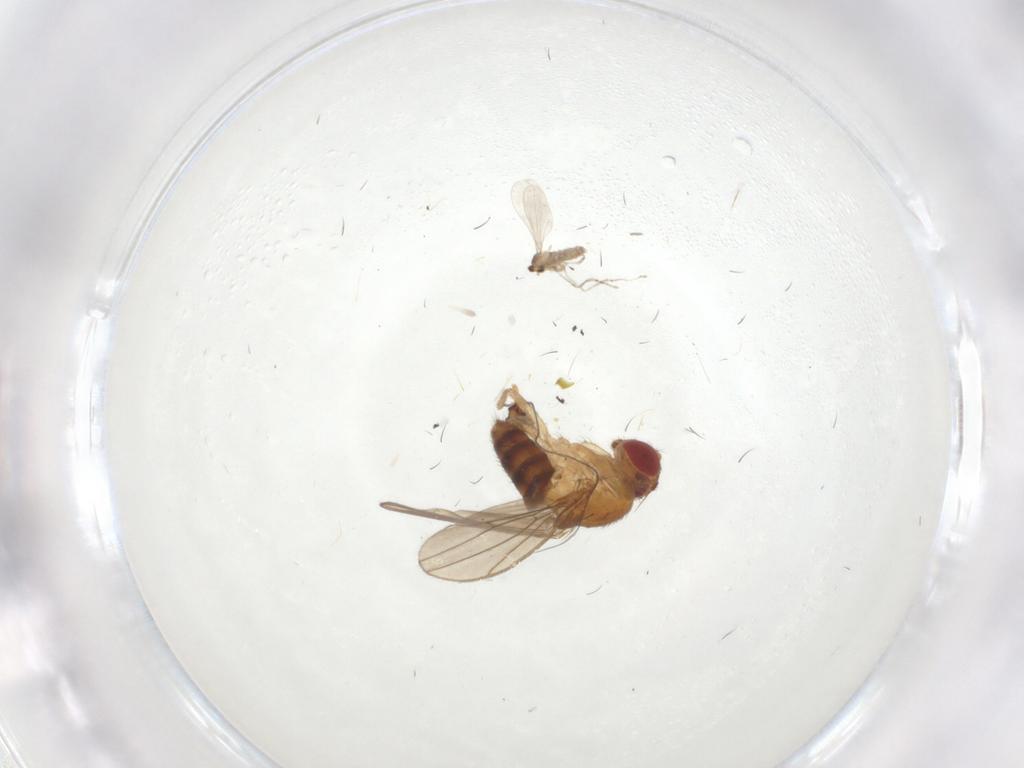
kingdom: Animalia
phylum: Arthropoda
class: Insecta
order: Diptera
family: Drosophilidae
